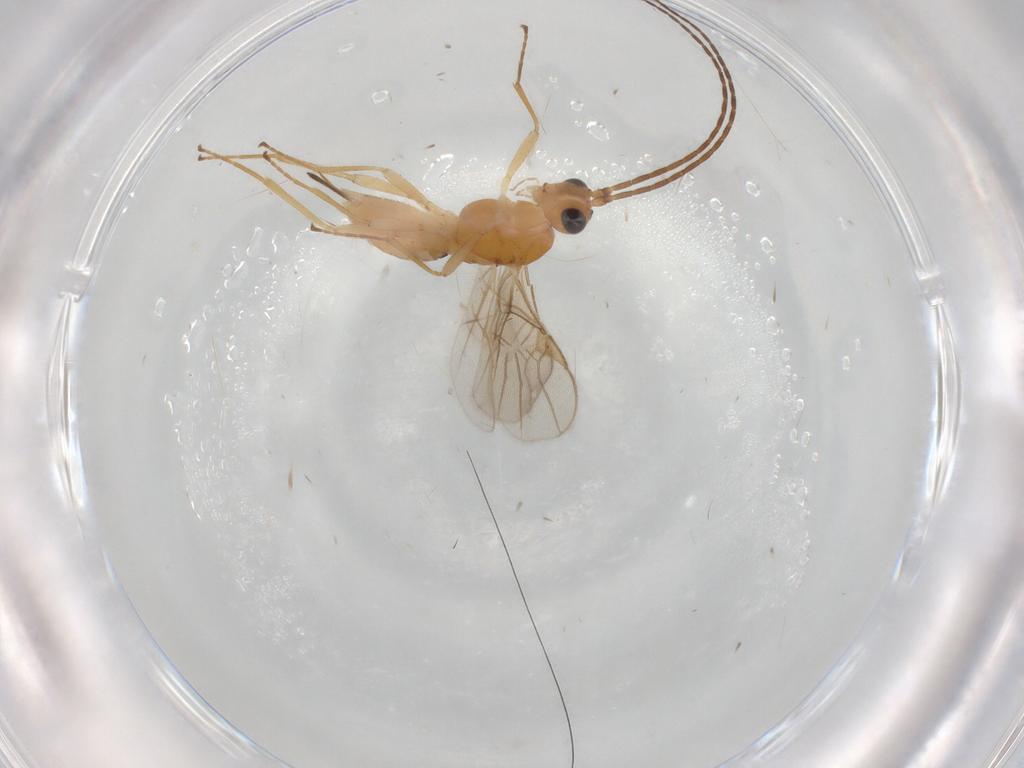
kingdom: Animalia
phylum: Arthropoda
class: Insecta
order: Hymenoptera
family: Braconidae
